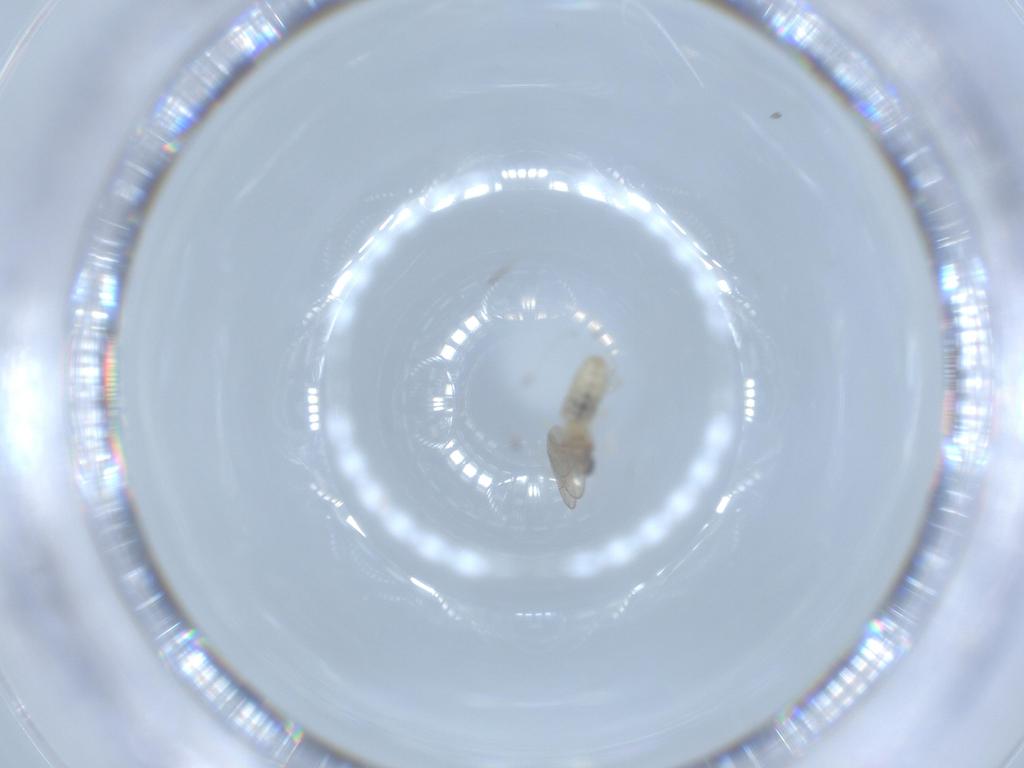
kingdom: Animalia
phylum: Arthropoda
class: Insecta
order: Diptera
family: Cecidomyiidae
